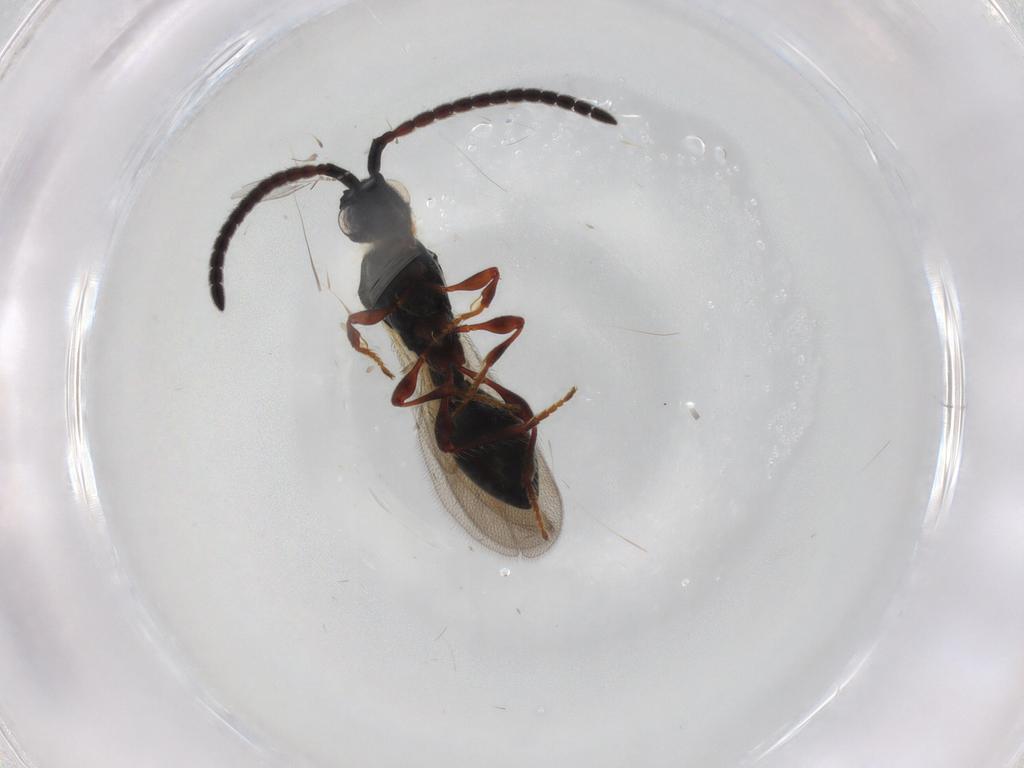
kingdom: Animalia
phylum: Arthropoda
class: Insecta
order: Hymenoptera
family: Diapriidae
